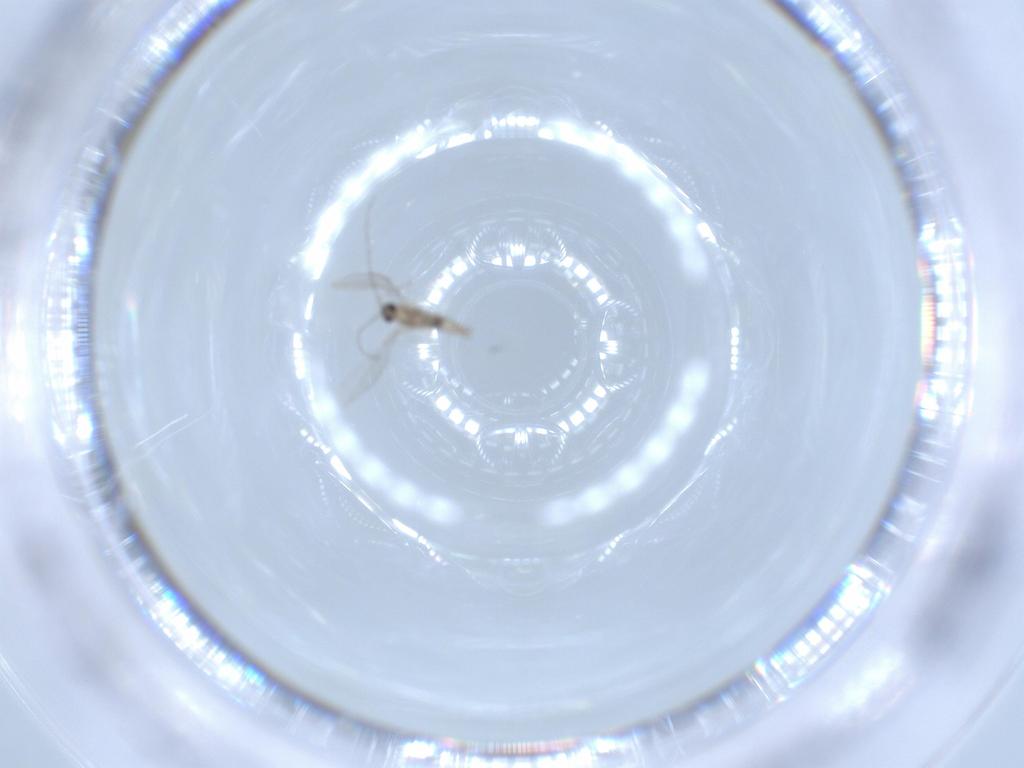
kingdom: Animalia
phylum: Arthropoda
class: Insecta
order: Diptera
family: Cecidomyiidae
